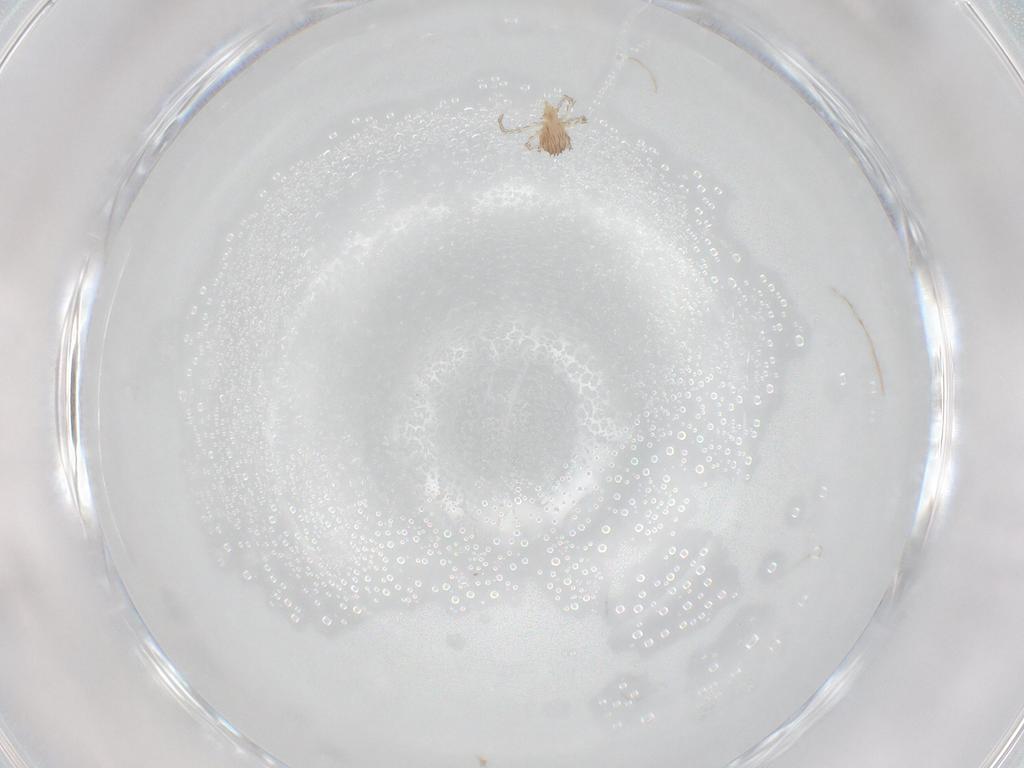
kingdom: Animalia
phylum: Arthropoda
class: Arachnida
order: Trombidiformes
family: Erythraeidae
